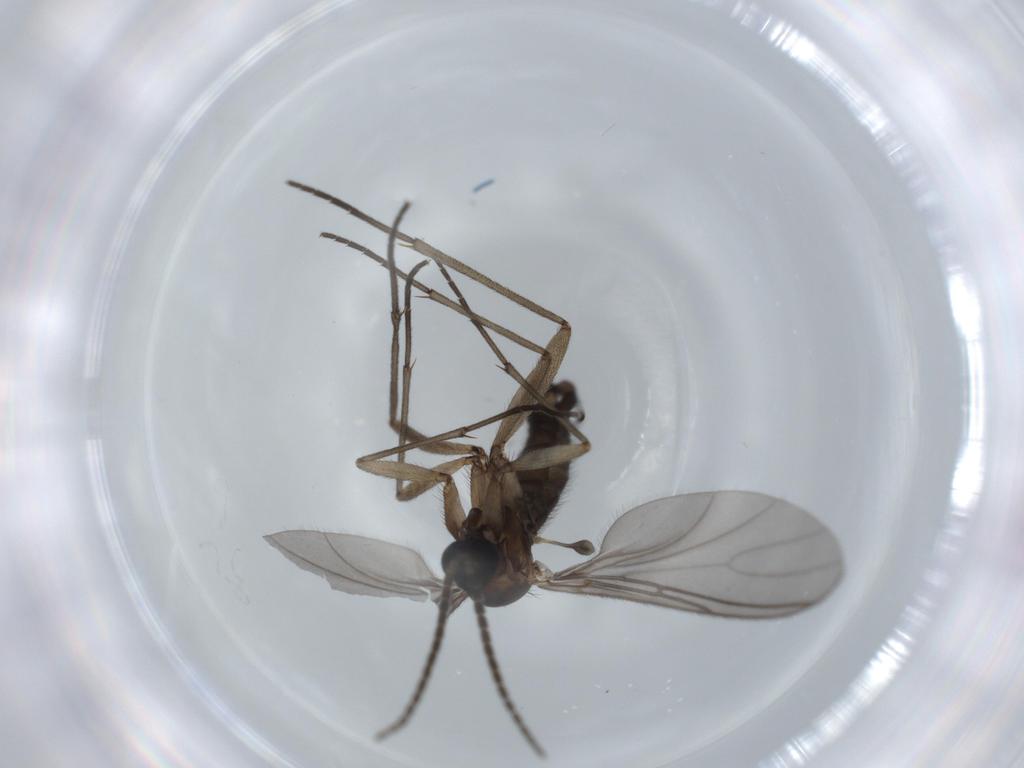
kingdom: Animalia
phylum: Arthropoda
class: Insecta
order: Diptera
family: Sciaridae
